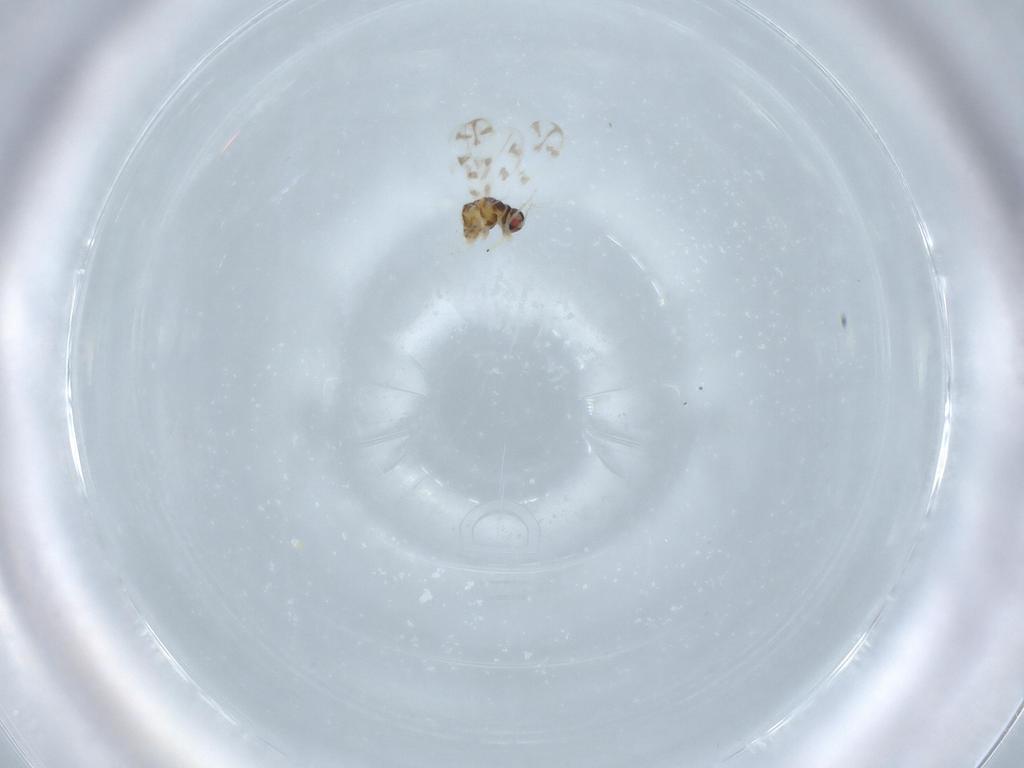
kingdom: Animalia
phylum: Arthropoda
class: Insecta
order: Hemiptera
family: Aleyrodidae
